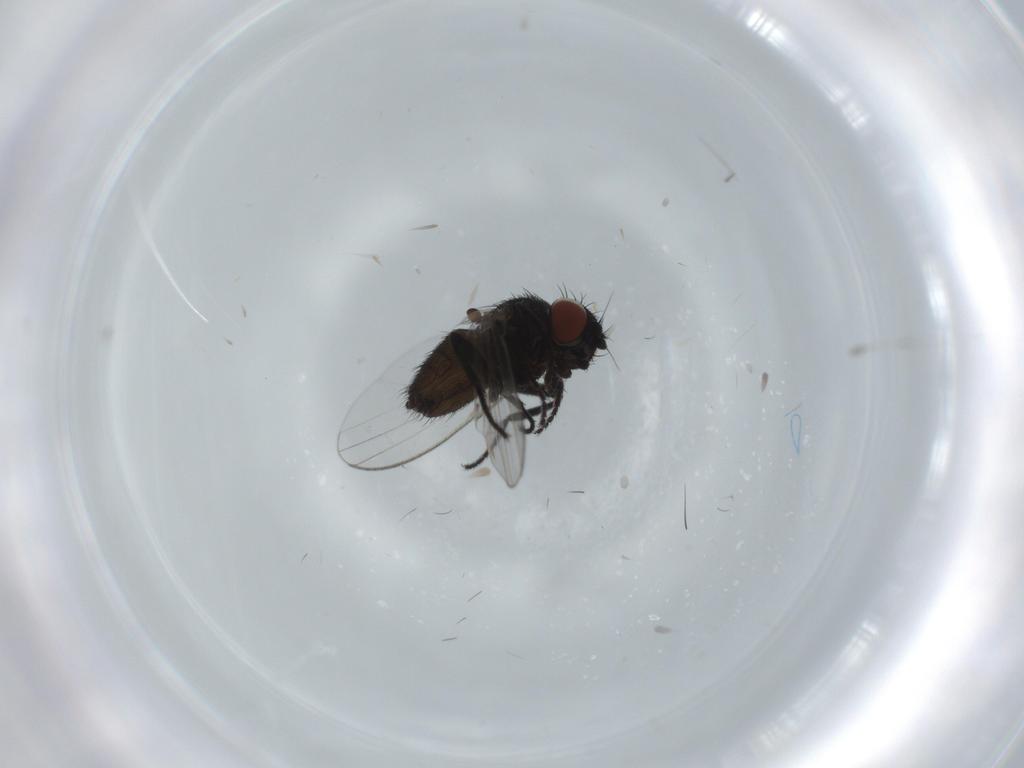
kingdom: Animalia
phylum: Arthropoda
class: Insecta
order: Diptera
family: Milichiidae
